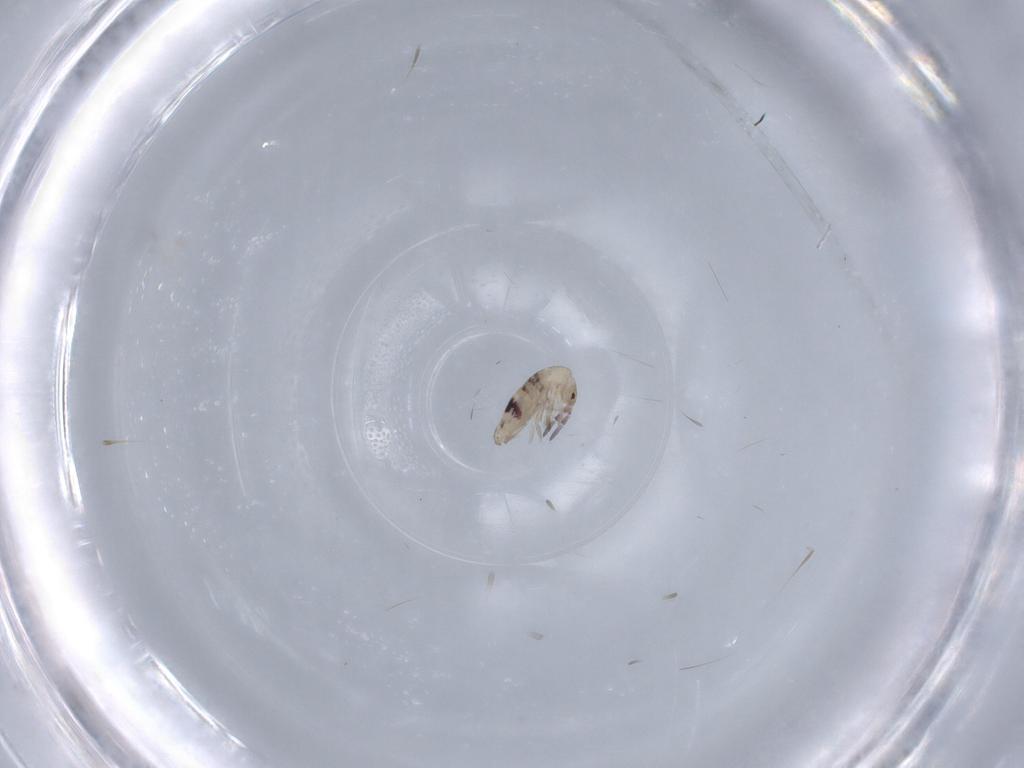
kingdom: Animalia
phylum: Arthropoda
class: Collembola
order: Entomobryomorpha
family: Entomobryidae
